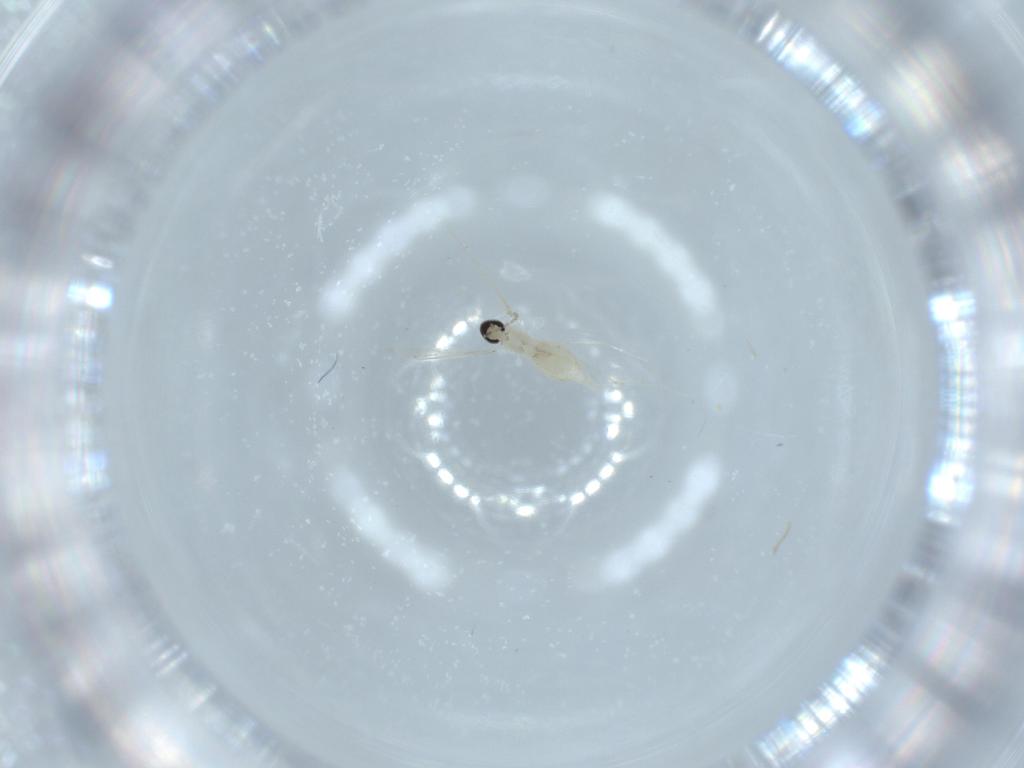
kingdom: Animalia
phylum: Arthropoda
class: Insecta
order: Diptera
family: Cecidomyiidae
